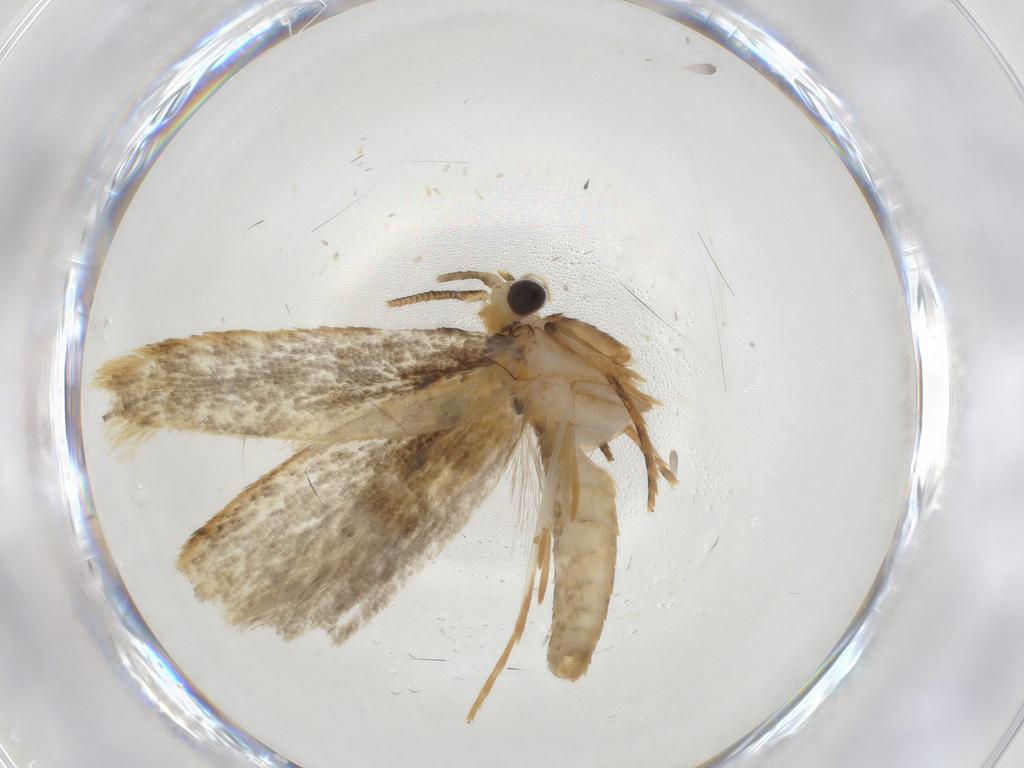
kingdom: Animalia
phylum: Arthropoda
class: Insecta
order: Lepidoptera
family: Tineidae
